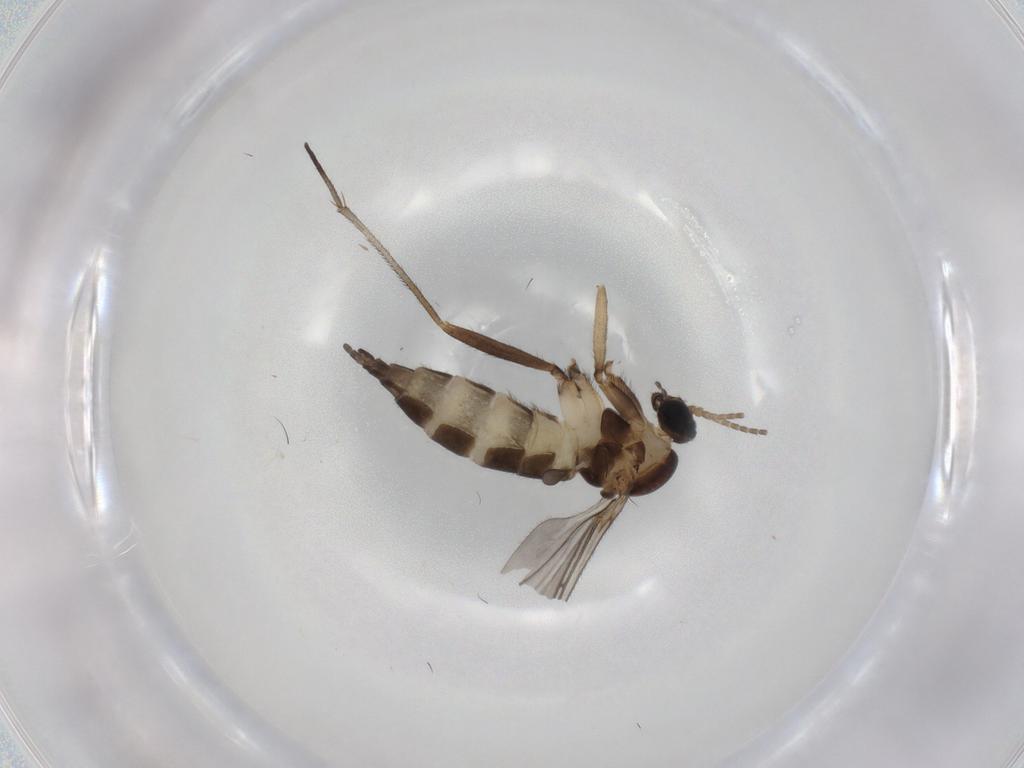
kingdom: Animalia
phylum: Arthropoda
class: Insecta
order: Diptera
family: Sciaridae
